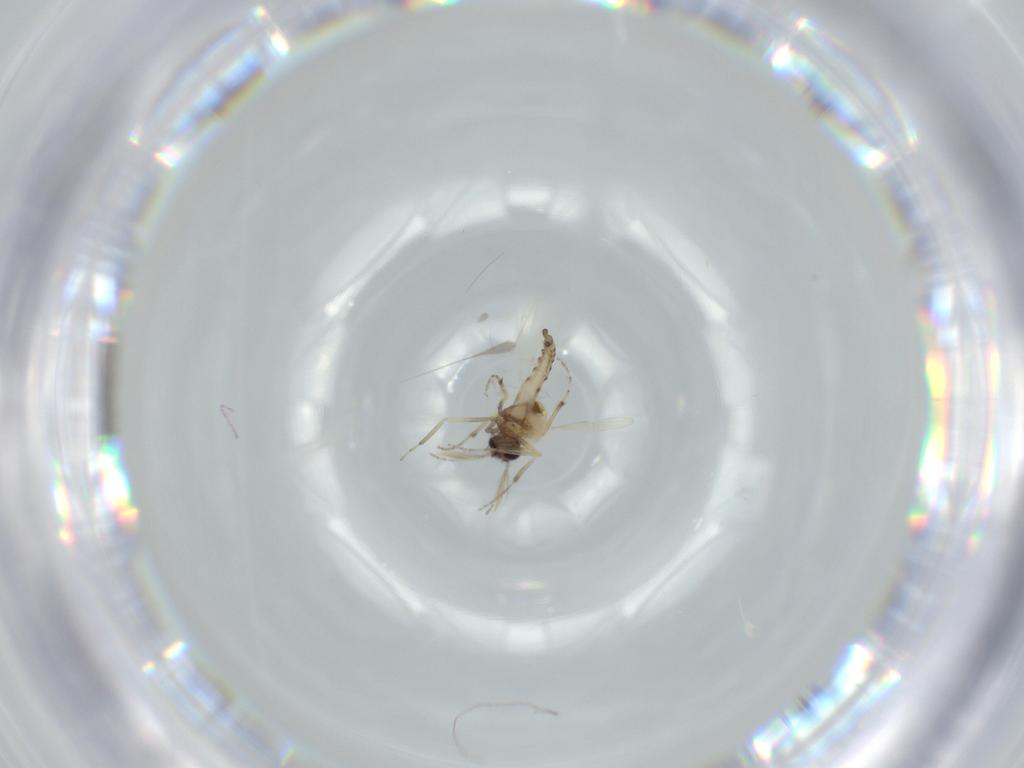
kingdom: Animalia
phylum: Arthropoda
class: Insecta
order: Diptera
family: Ceratopogonidae
